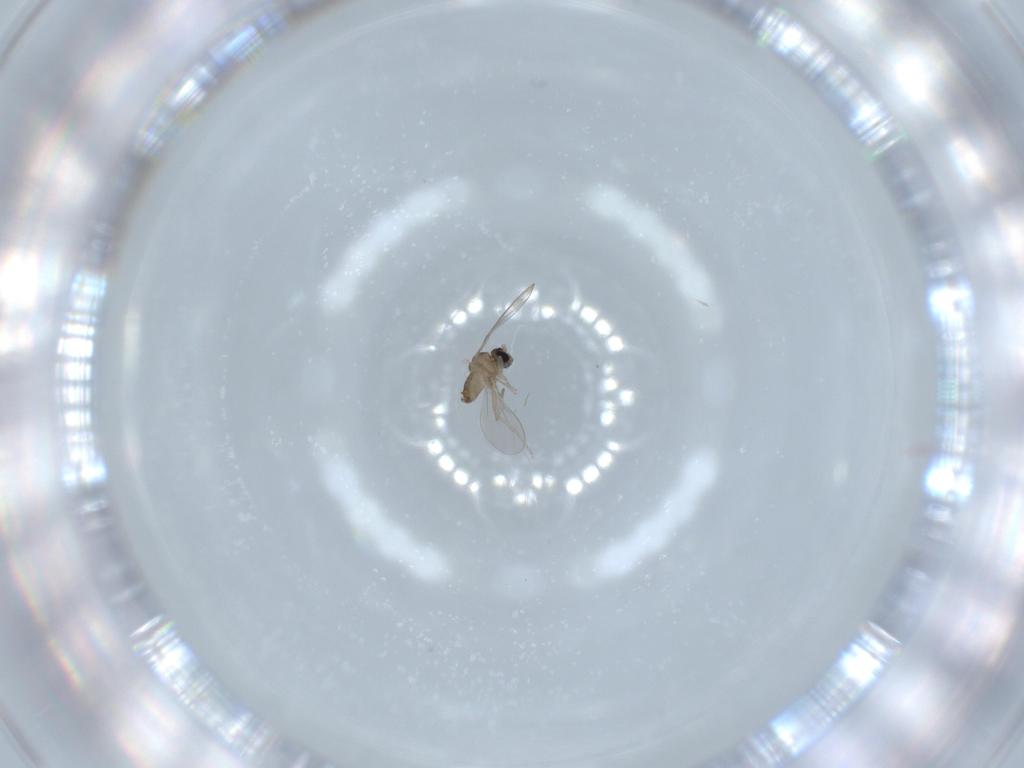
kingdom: Animalia
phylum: Arthropoda
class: Insecta
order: Diptera
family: Cecidomyiidae
